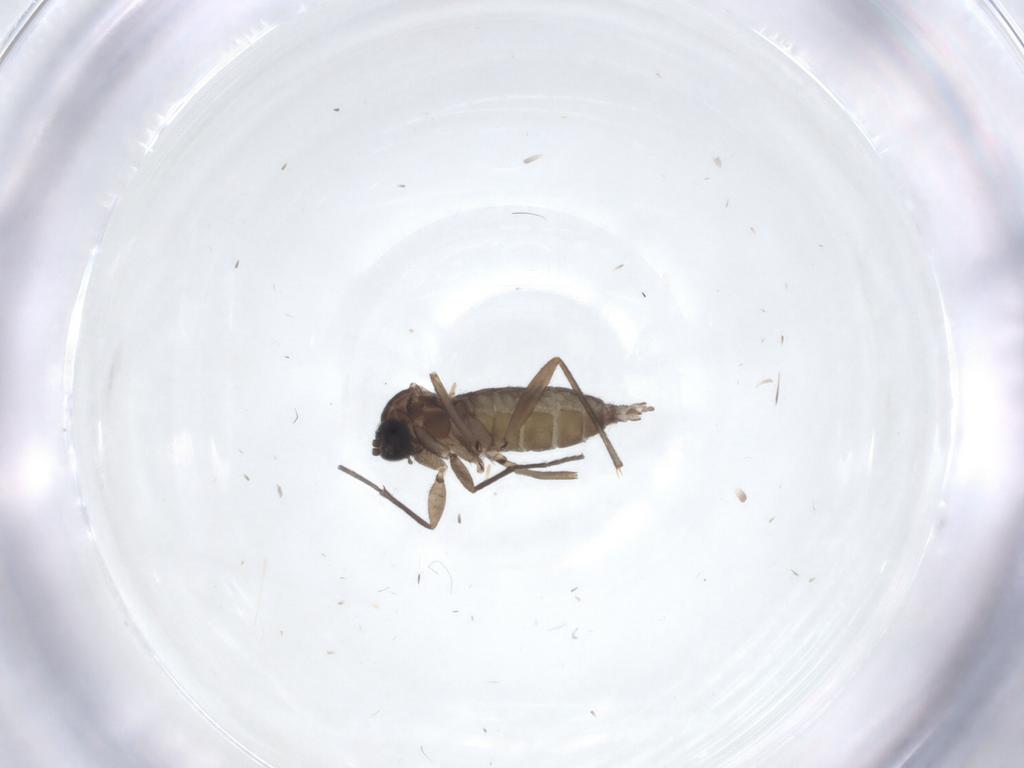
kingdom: Animalia
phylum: Arthropoda
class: Insecta
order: Diptera
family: Sciaridae
